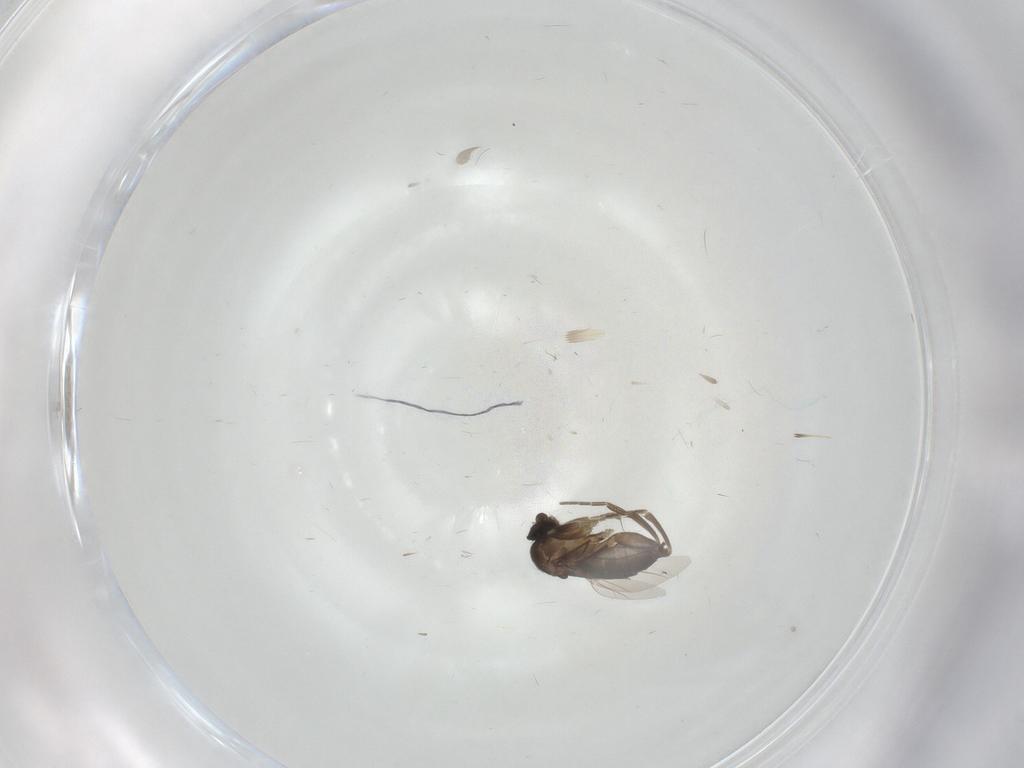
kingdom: Animalia
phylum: Arthropoda
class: Insecta
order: Diptera
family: Phoridae
